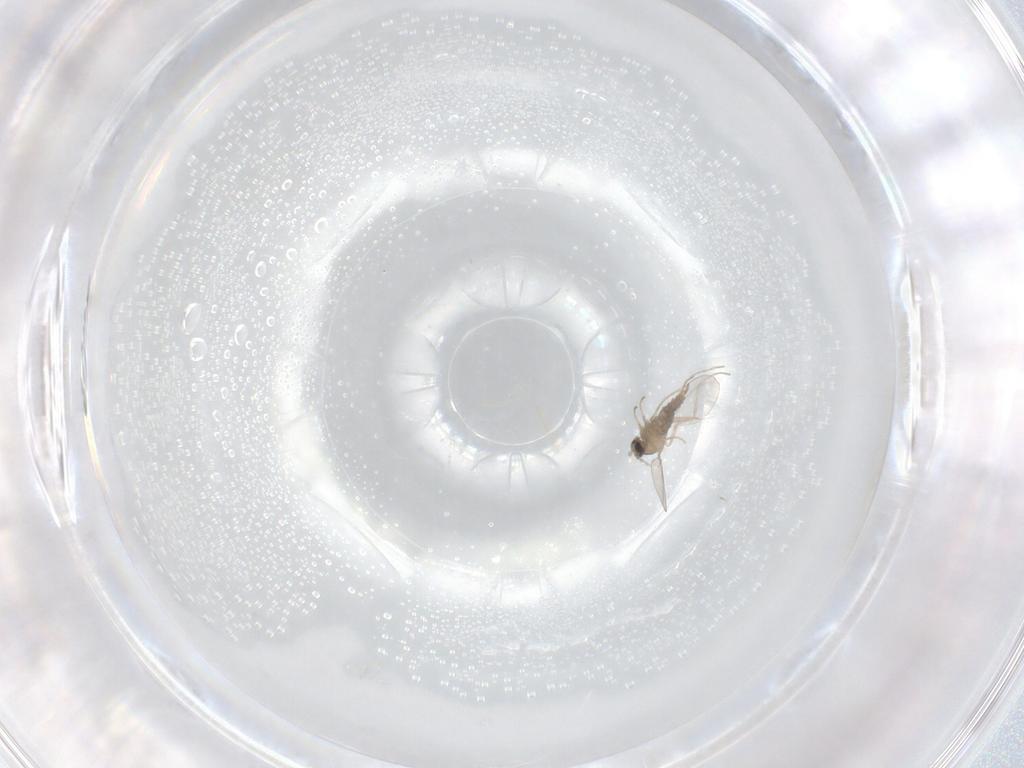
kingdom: Animalia
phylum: Arthropoda
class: Insecta
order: Diptera
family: Cecidomyiidae
